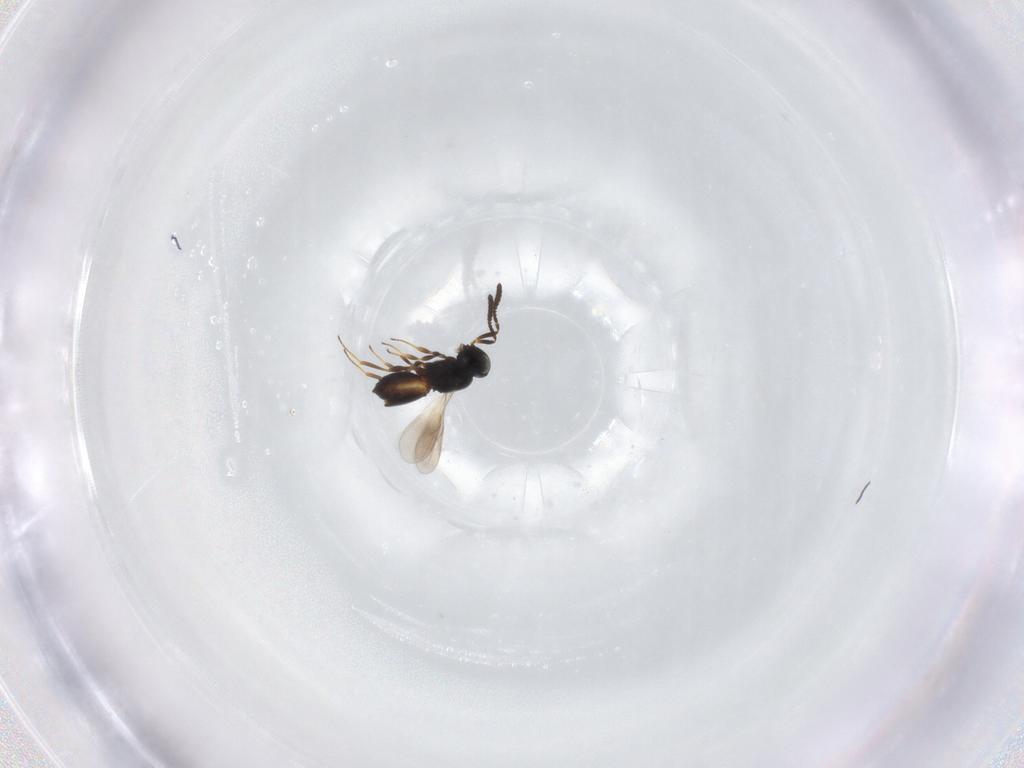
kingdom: Animalia
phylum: Arthropoda
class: Insecta
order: Hymenoptera
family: Scelionidae
